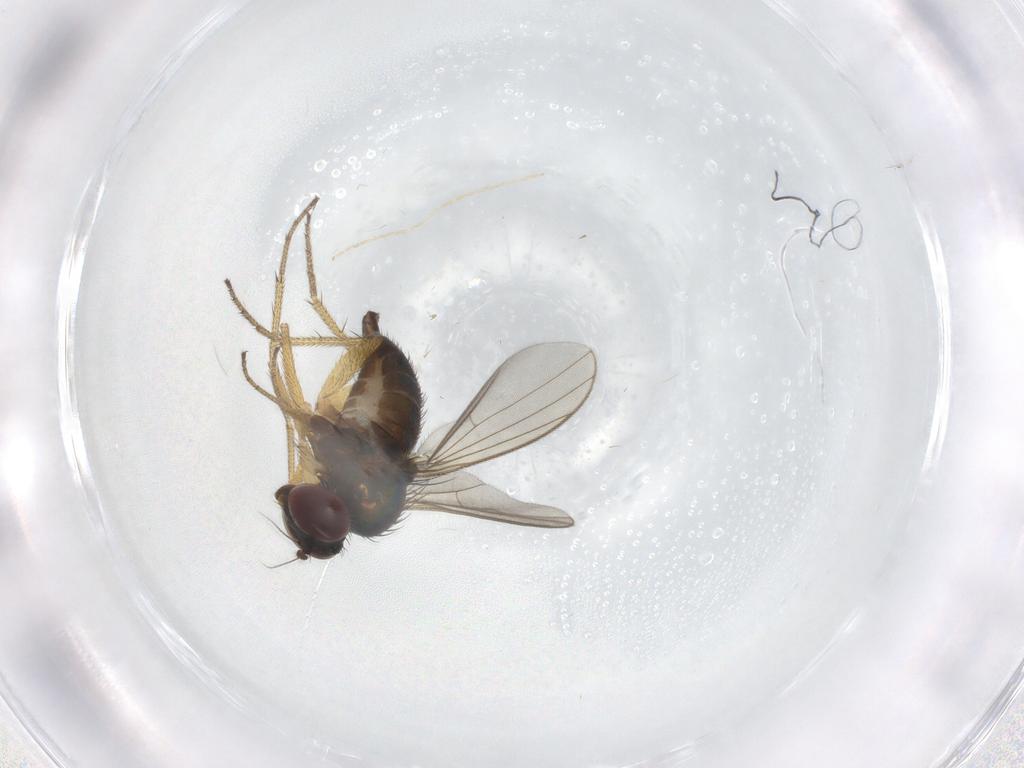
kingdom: Animalia
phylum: Arthropoda
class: Insecta
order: Diptera
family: Dolichopodidae
